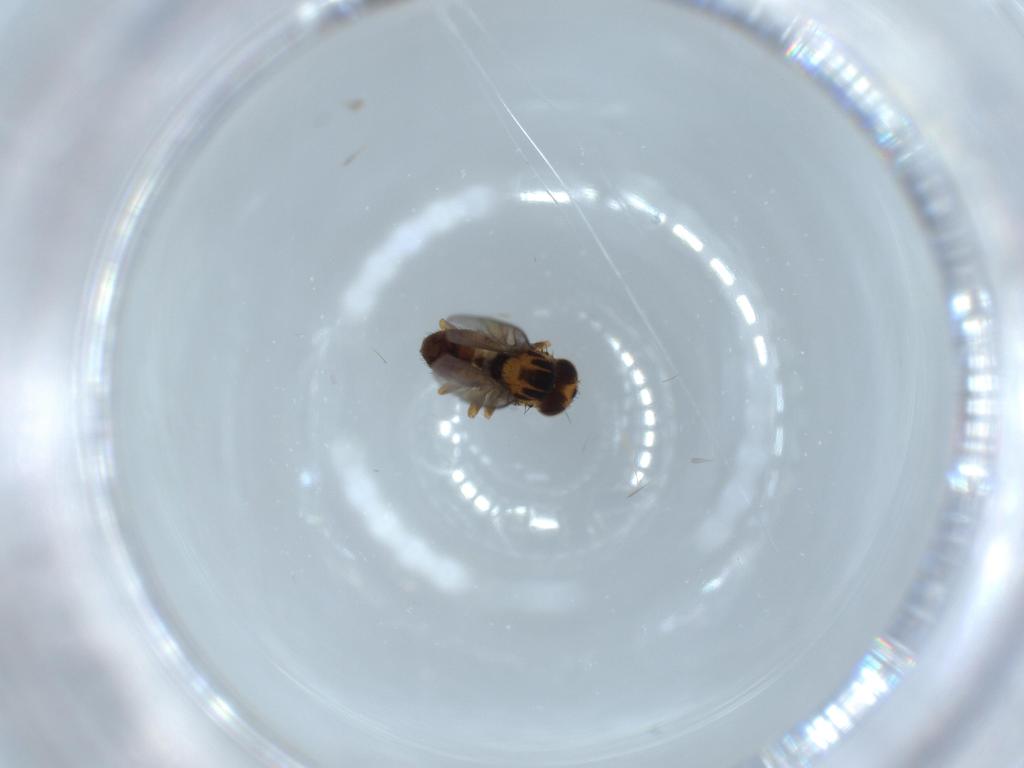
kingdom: Animalia
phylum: Arthropoda
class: Insecta
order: Diptera
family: Chloropidae
